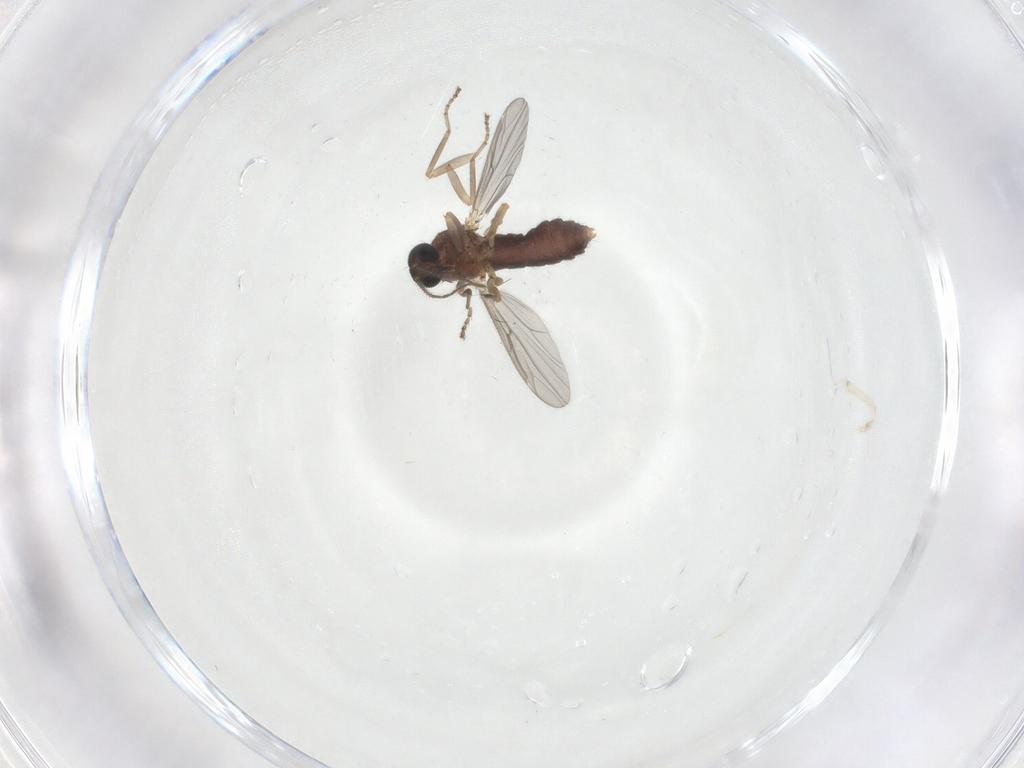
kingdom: Animalia
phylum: Arthropoda
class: Insecta
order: Diptera
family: Ceratopogonidae
